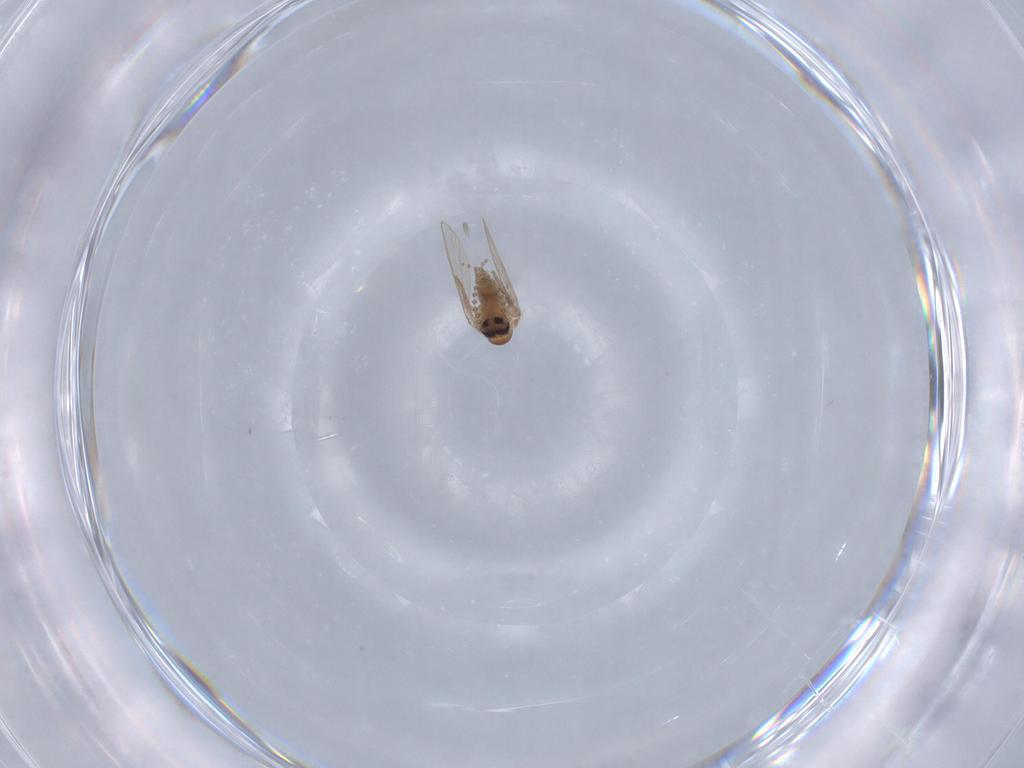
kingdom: Animalia
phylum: Arthropoda
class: Insecta
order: Diptera
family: Psychodidae
